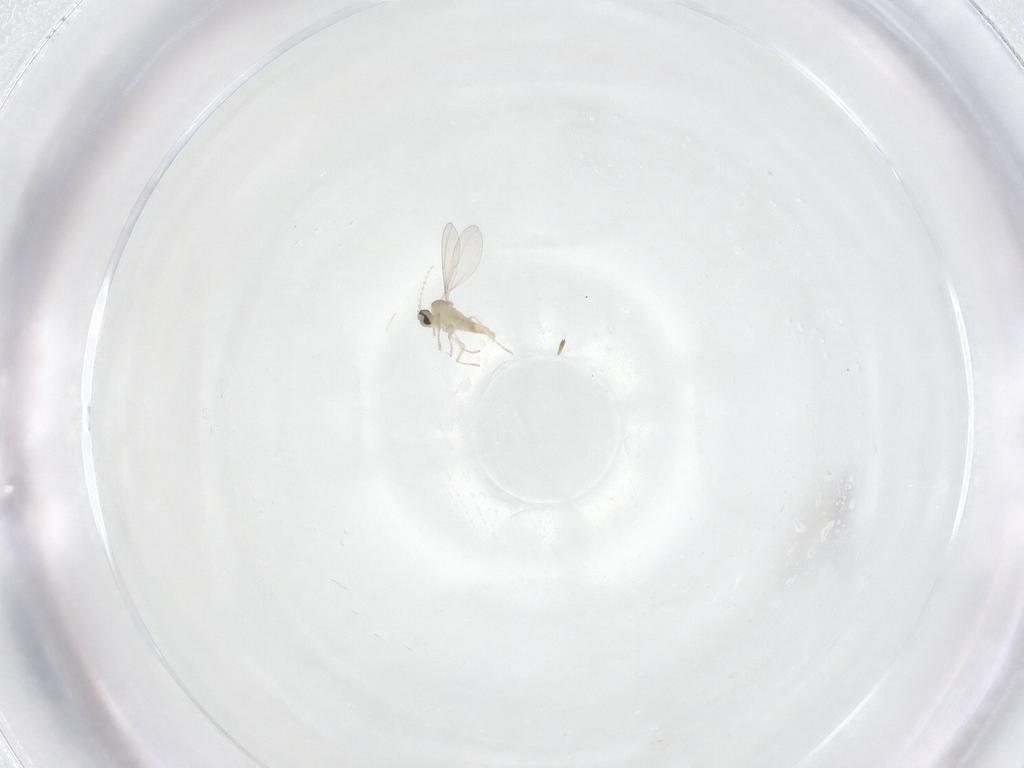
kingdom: Animalia
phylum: Arthropoda
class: Insecta
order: Diptera
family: Cecidomyiidae
